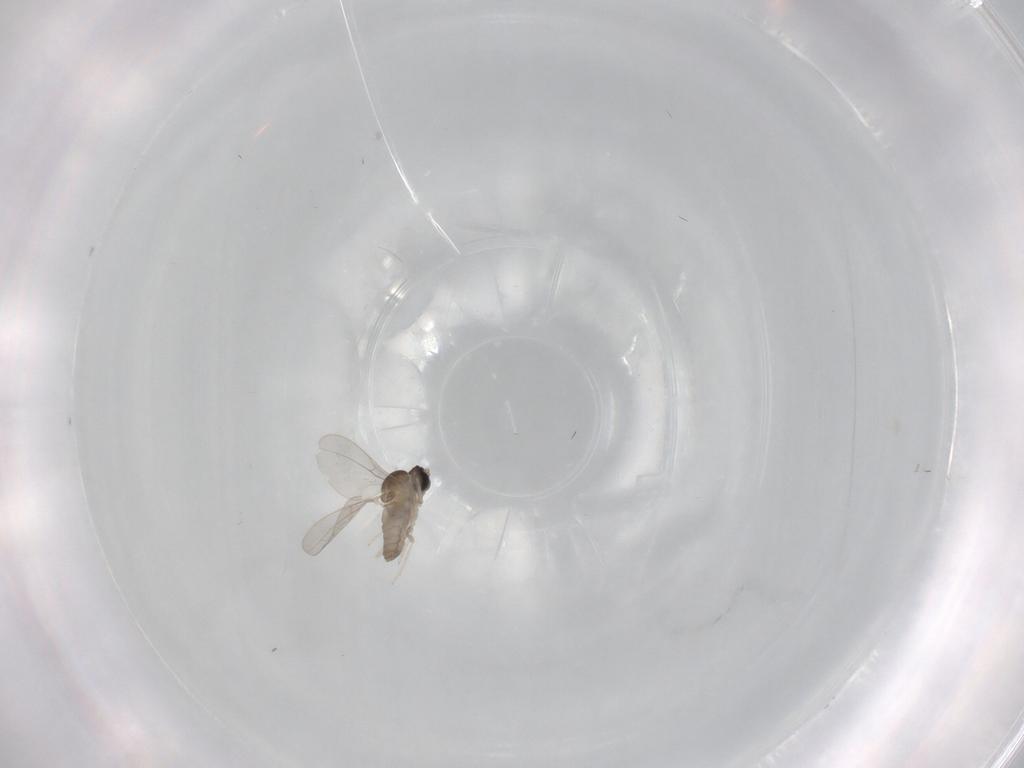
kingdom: Animalia
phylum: Arthropoda
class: Insecta
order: Diptera
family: Cecidomyiidae
